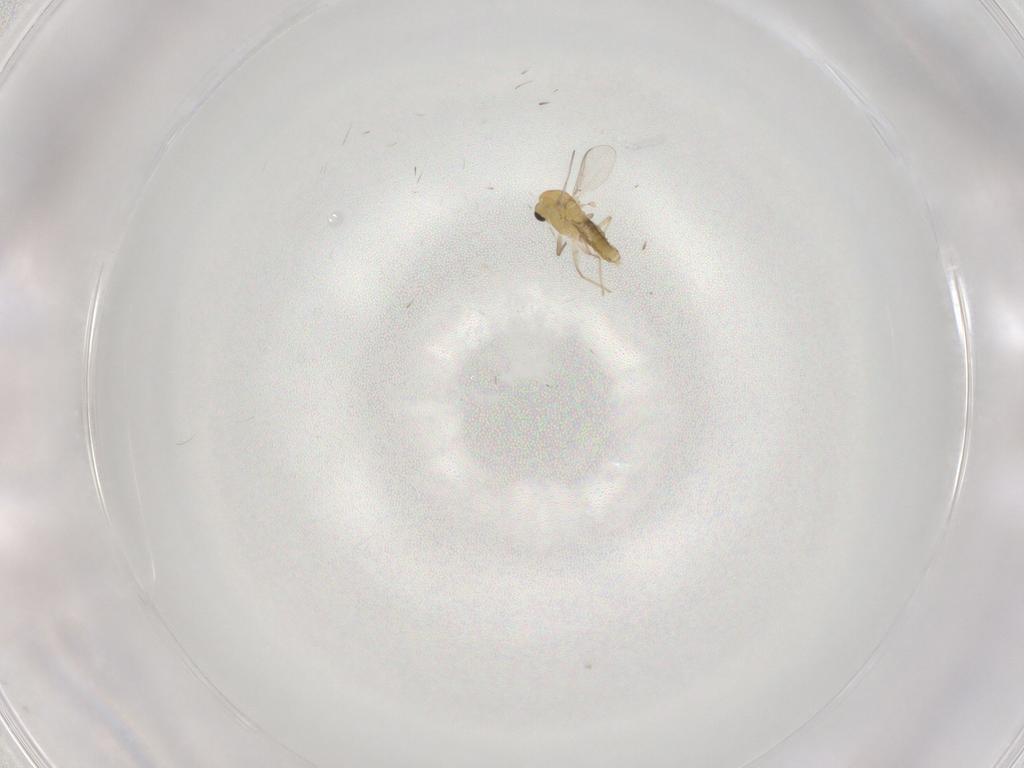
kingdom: Animalia
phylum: Arthropoda
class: Insecta
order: Diptera
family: Chironomidae
